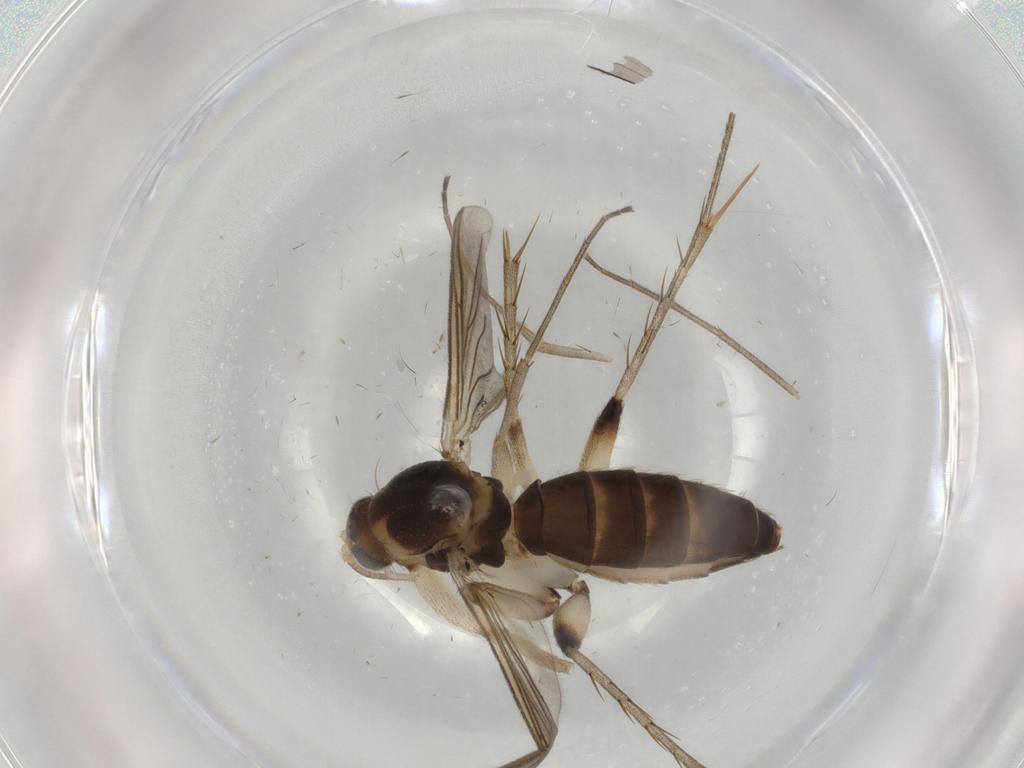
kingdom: Animalia
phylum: Arthropoda
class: Insecta
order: Diptera
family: Mycetophilidae
